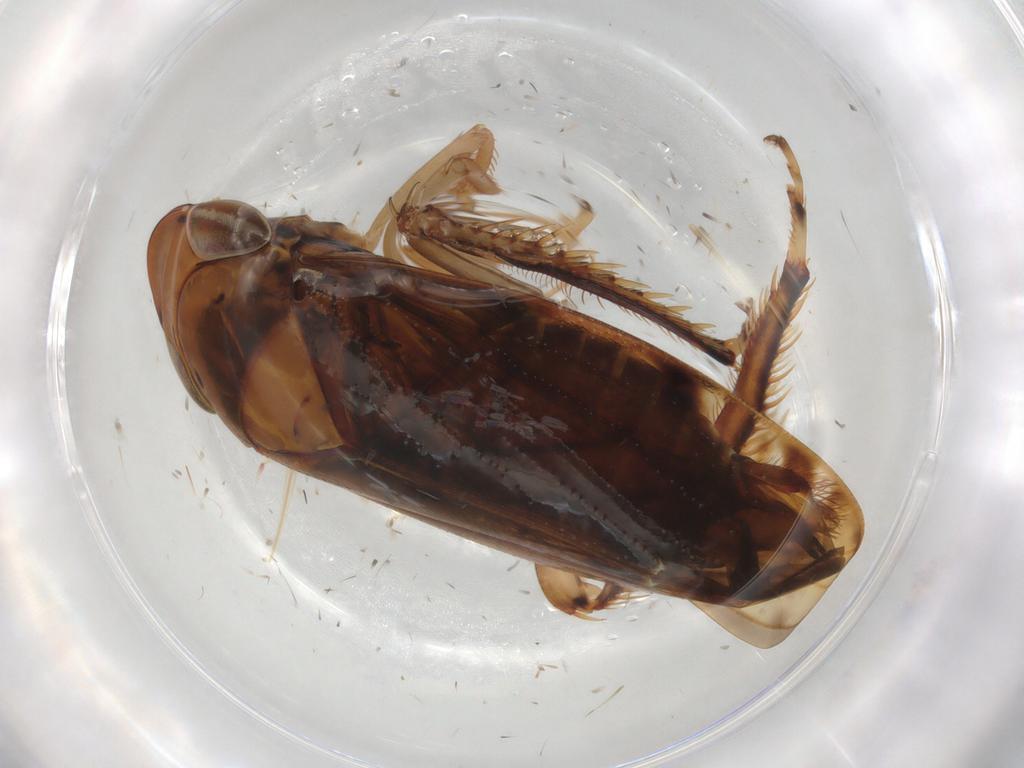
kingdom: Animalia
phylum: Arthropoda
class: Insecta
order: Hemiptera
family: Cicadellidae
